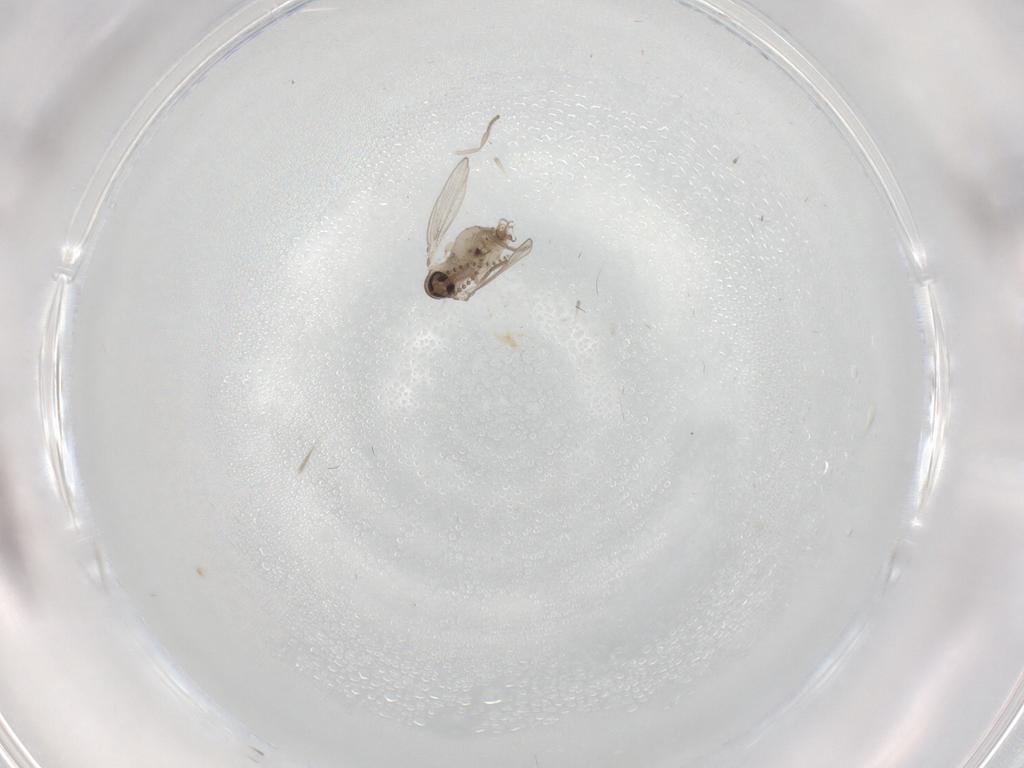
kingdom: Animalia
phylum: Arthropoda
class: Insecta
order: Diptera
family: Psychodidae
